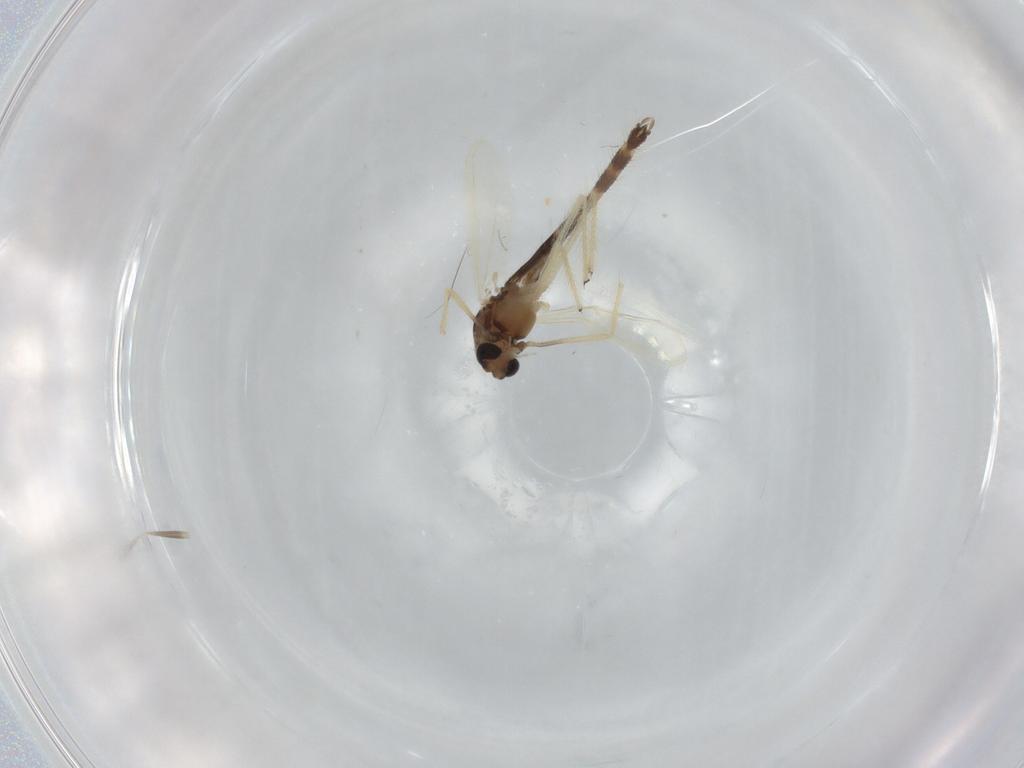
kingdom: Animalia
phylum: Arthropoda
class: Insecta
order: Diptera
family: Chironomidae
